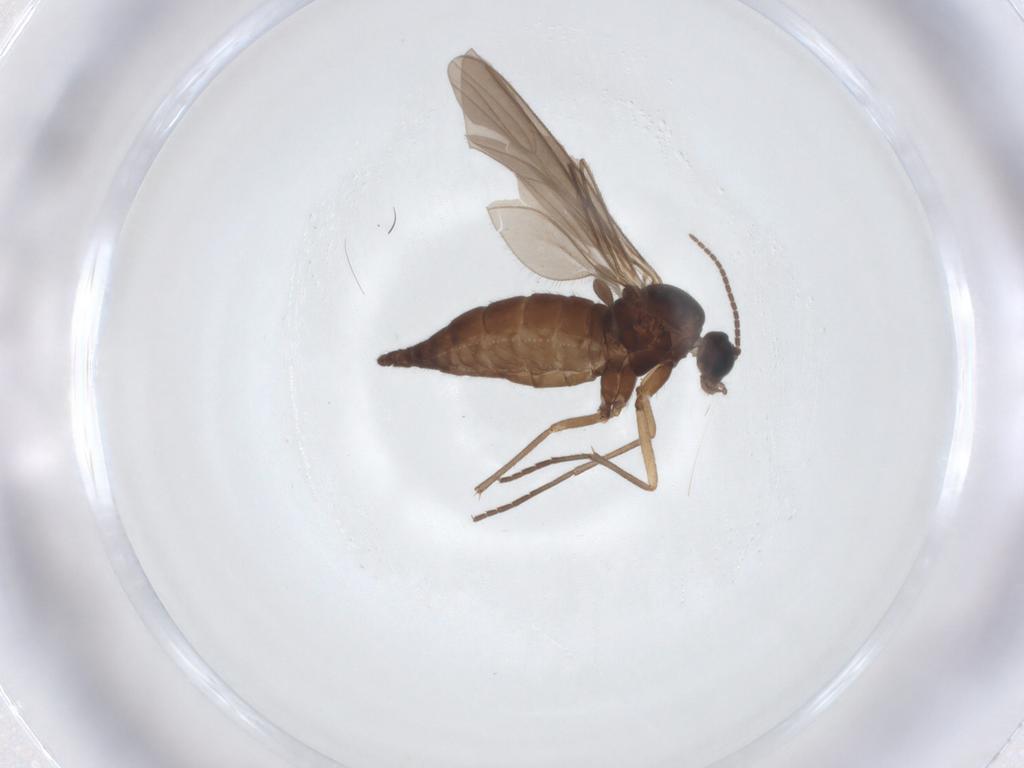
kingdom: Animalia
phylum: Arthropoda
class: Insecta
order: Diptera
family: Sciaridae
